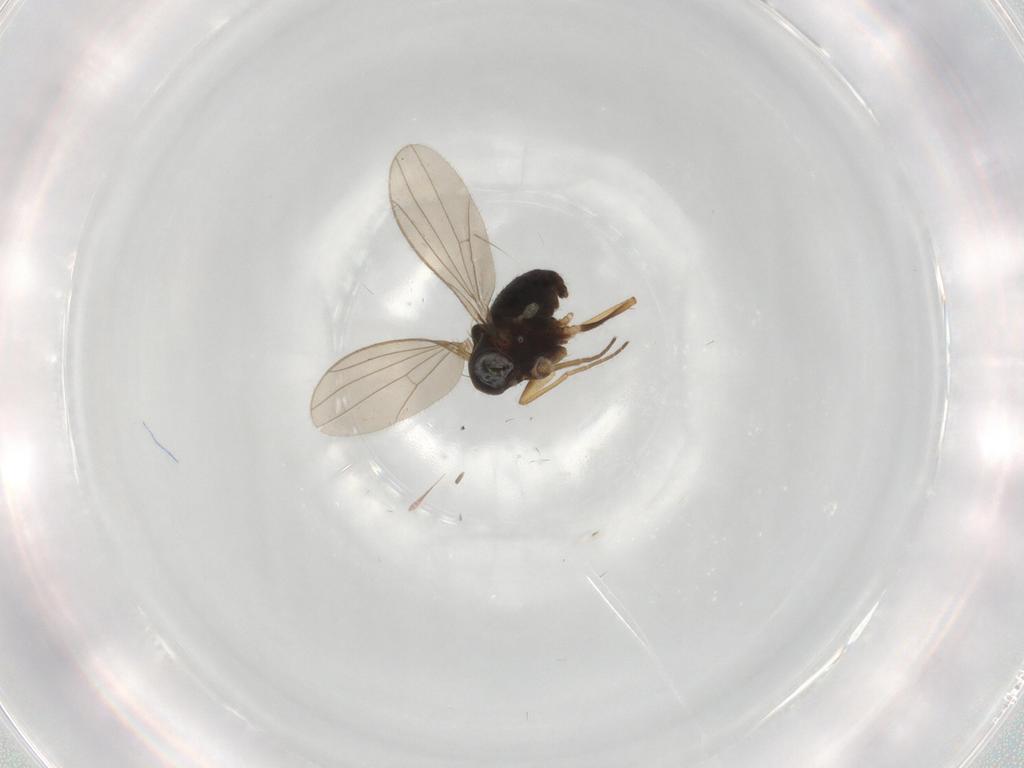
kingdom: Animalia
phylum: Arthropoda
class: Insecta
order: Diptera
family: Dolichopodidae
